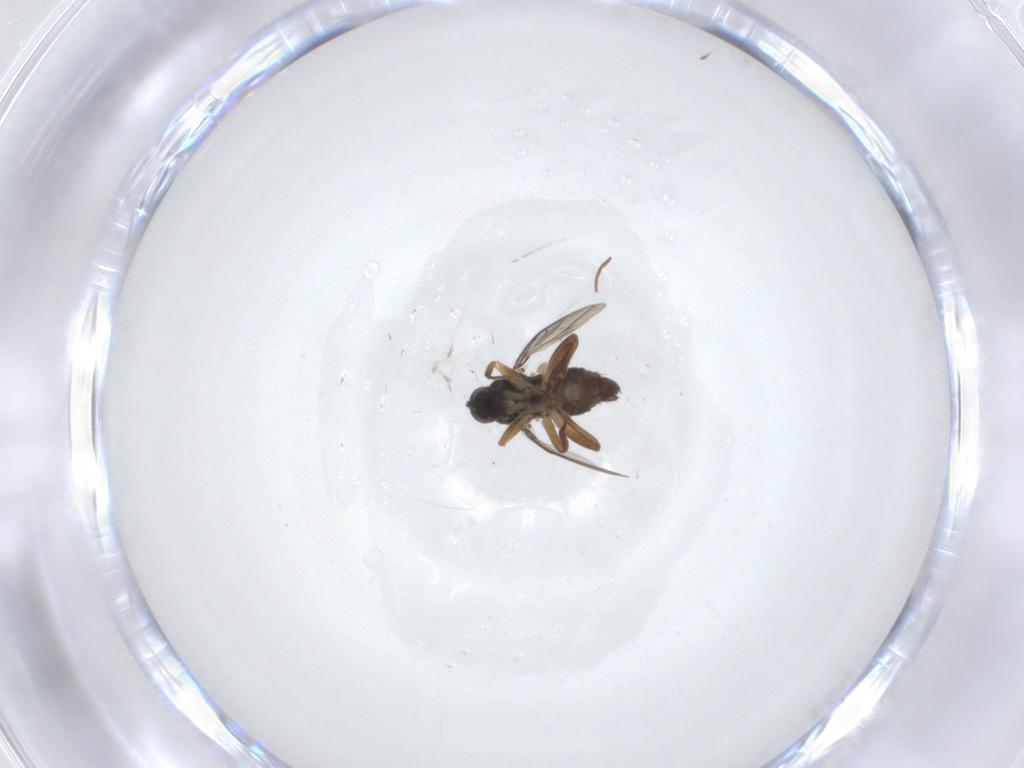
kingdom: Animalia
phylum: Arthropoda
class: Insecta
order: Diptera
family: Hybotidae
